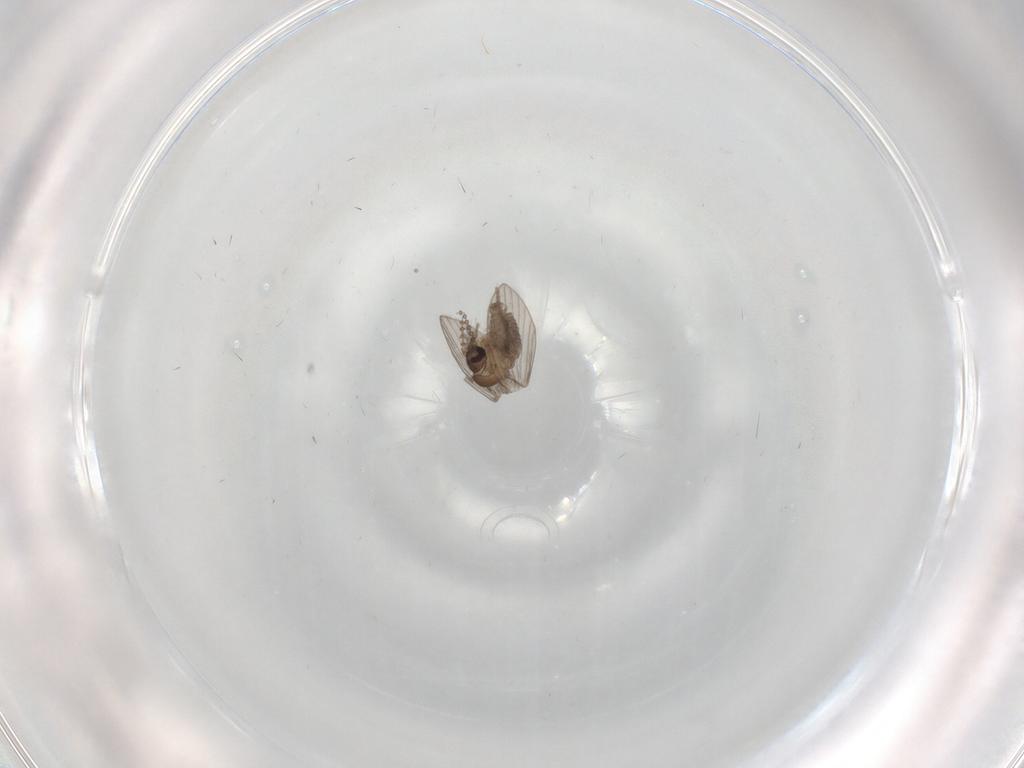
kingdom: Animalia
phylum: Arthropoda
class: Insecta
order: Diptera
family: Psychodidae
